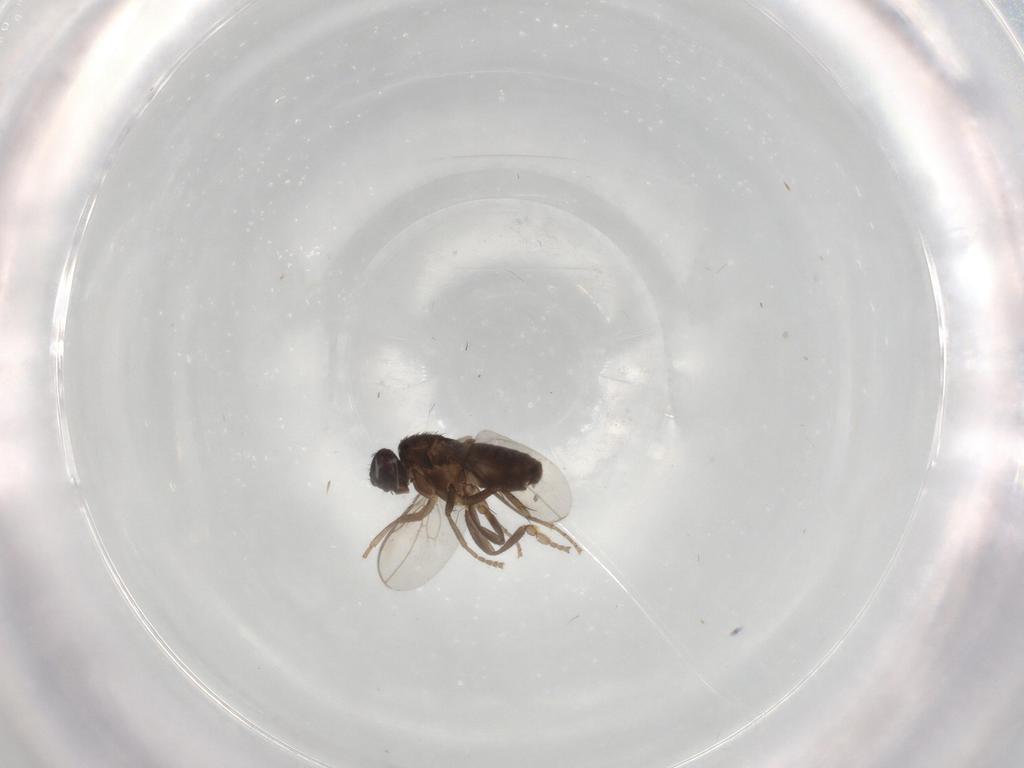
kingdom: Animalia
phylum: Arthropoda
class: Insecta
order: Diptera
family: Sphaeroceridae
